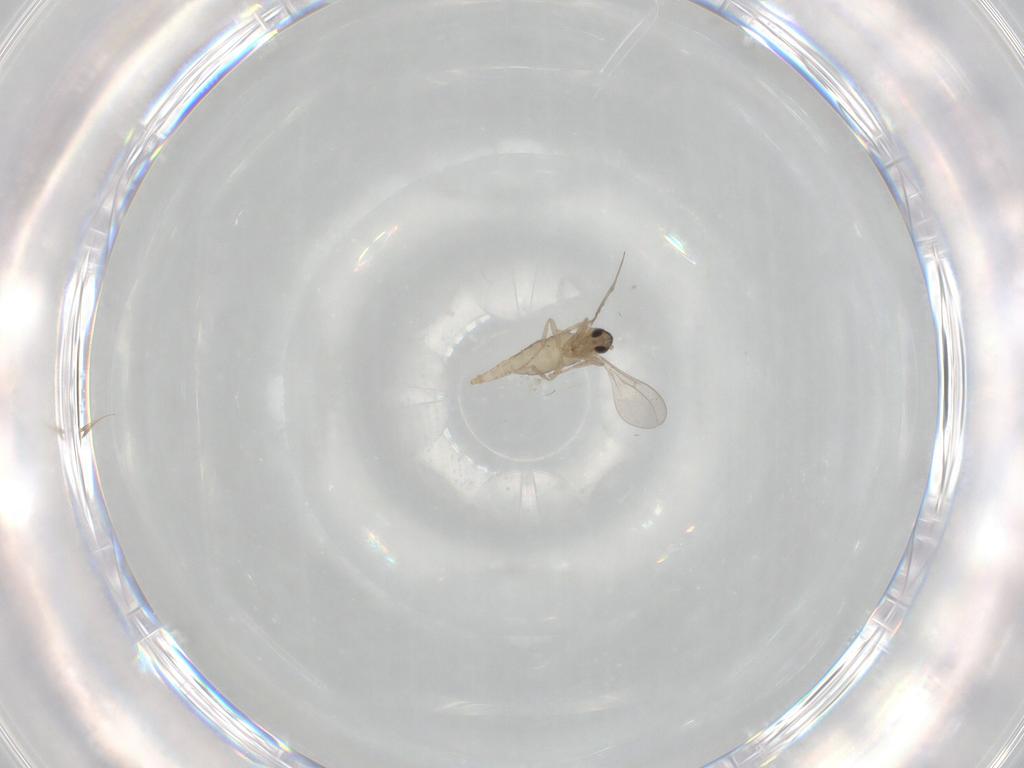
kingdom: Animalia
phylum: Arthropoda
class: Insecta
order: Diptera
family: Cecidomyiidae
